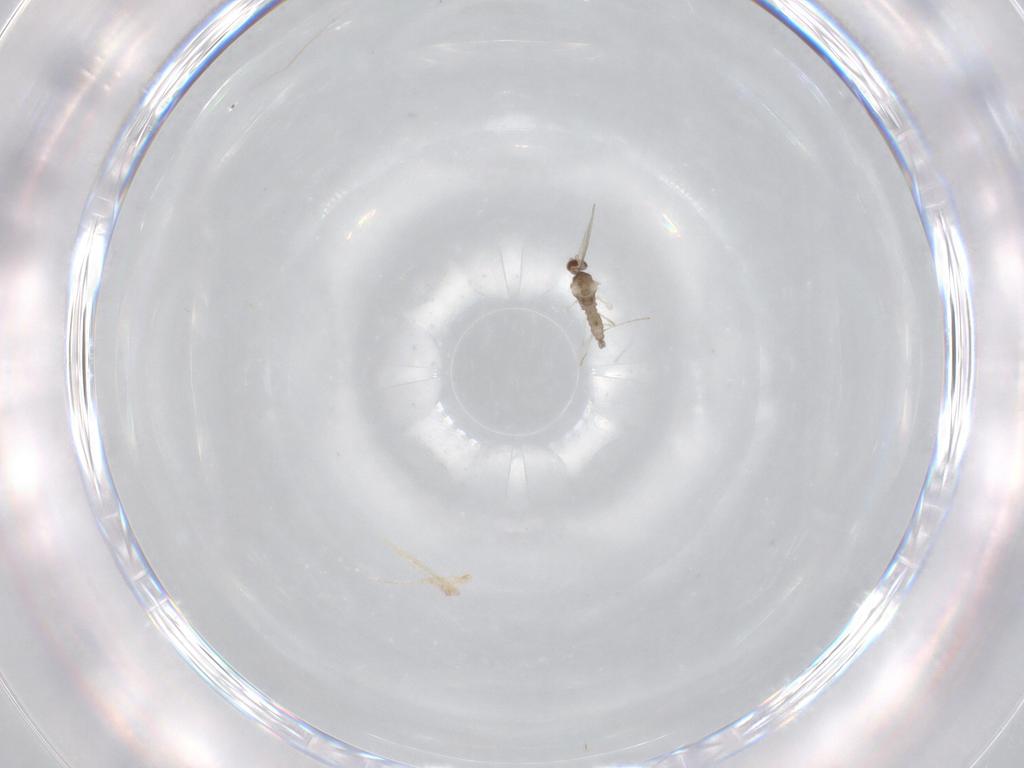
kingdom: Animalia
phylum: Arthropoda
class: Insecta
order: Diptera
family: Cecidomyiidae
